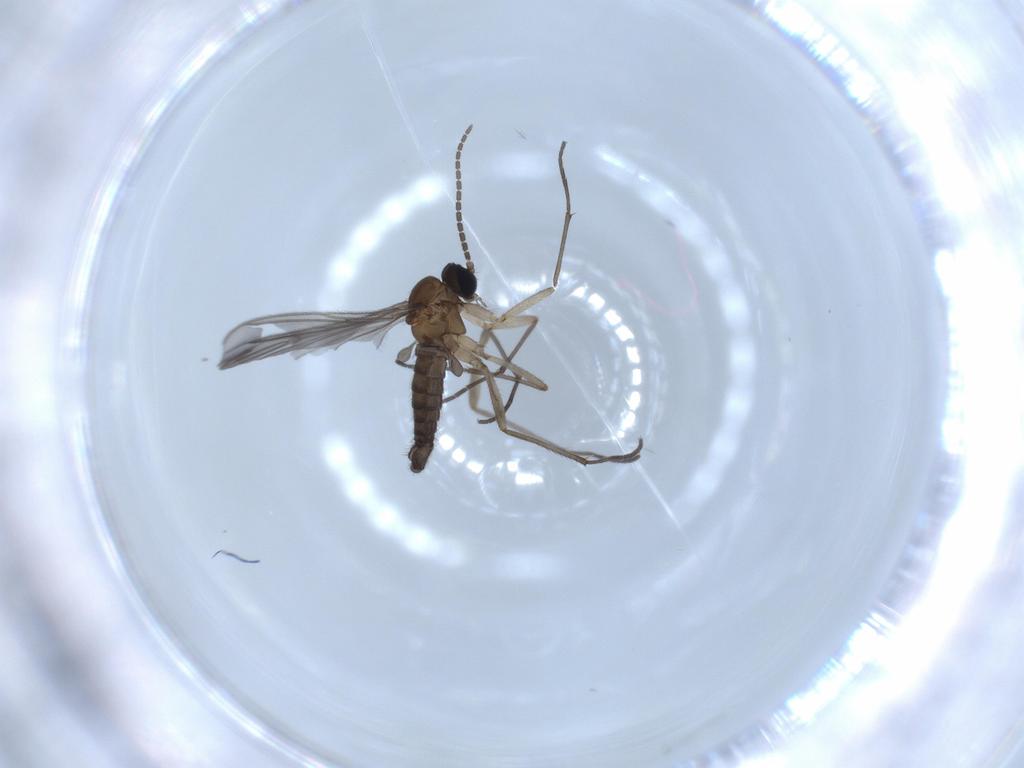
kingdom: Animalia
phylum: Arthropoda
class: Insecta
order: Diptera
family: Sciaridae
